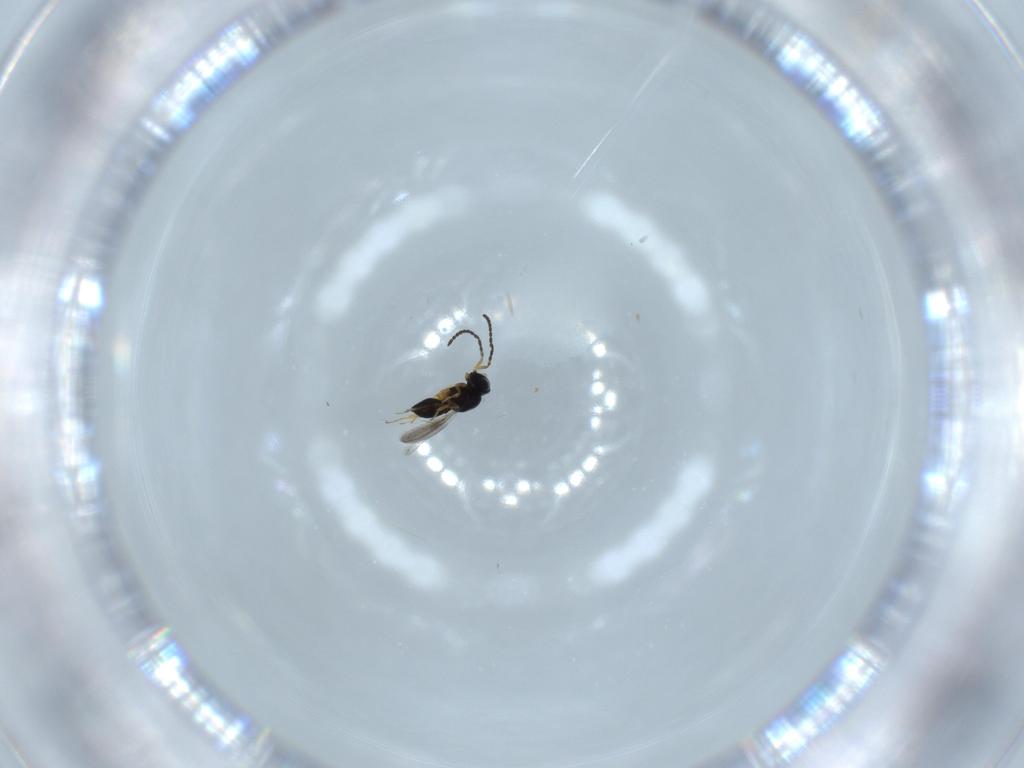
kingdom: Animalia
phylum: Arthropoda
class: Insecta
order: Hymenoptera
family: Scelionidae
